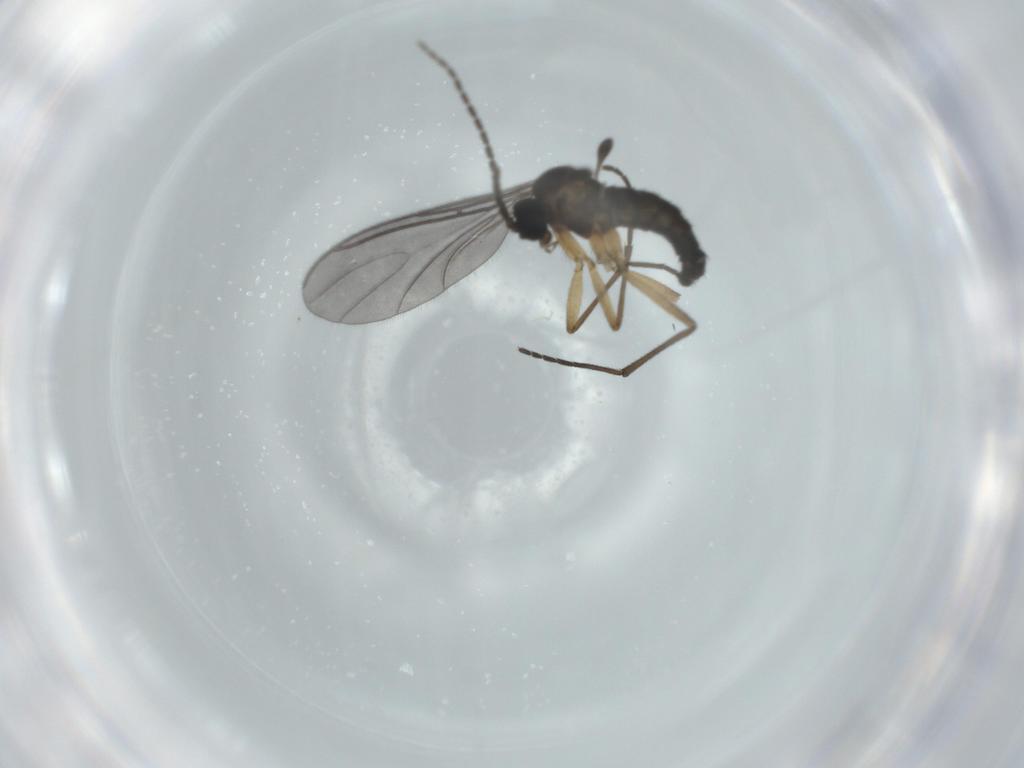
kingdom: Animalia
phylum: Arthropoda
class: Insecta
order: Diptera
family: Sciaridae
